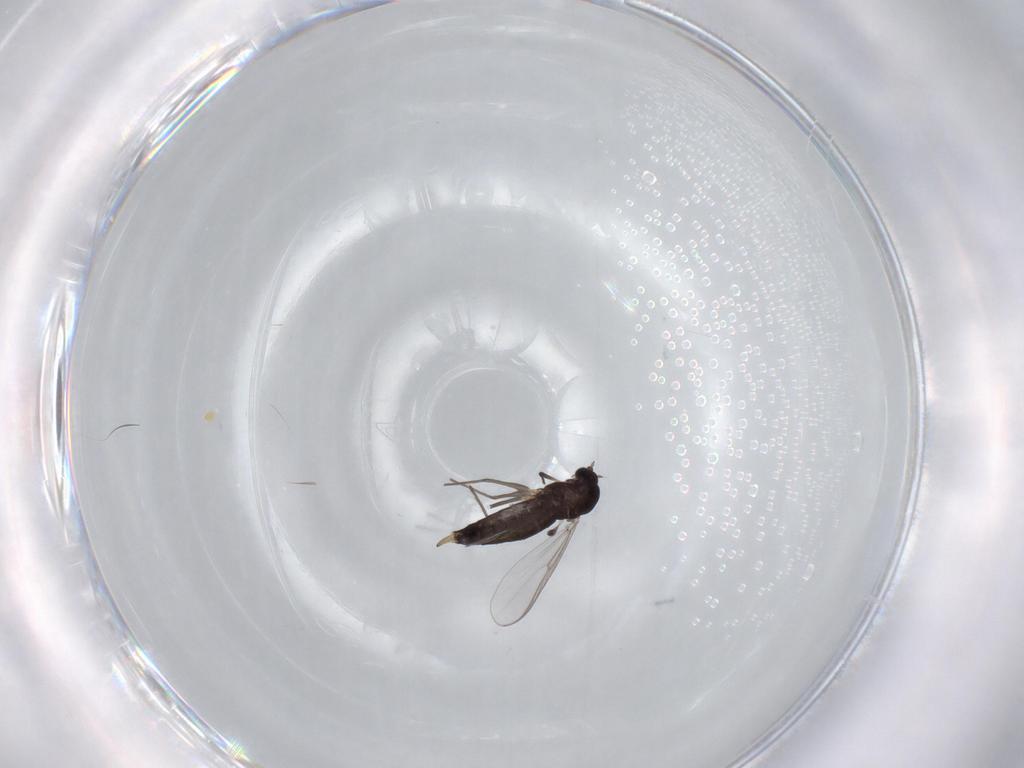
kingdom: Animalia
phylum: Arthropoda
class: Insecta
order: Diptera
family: Chironomidae
